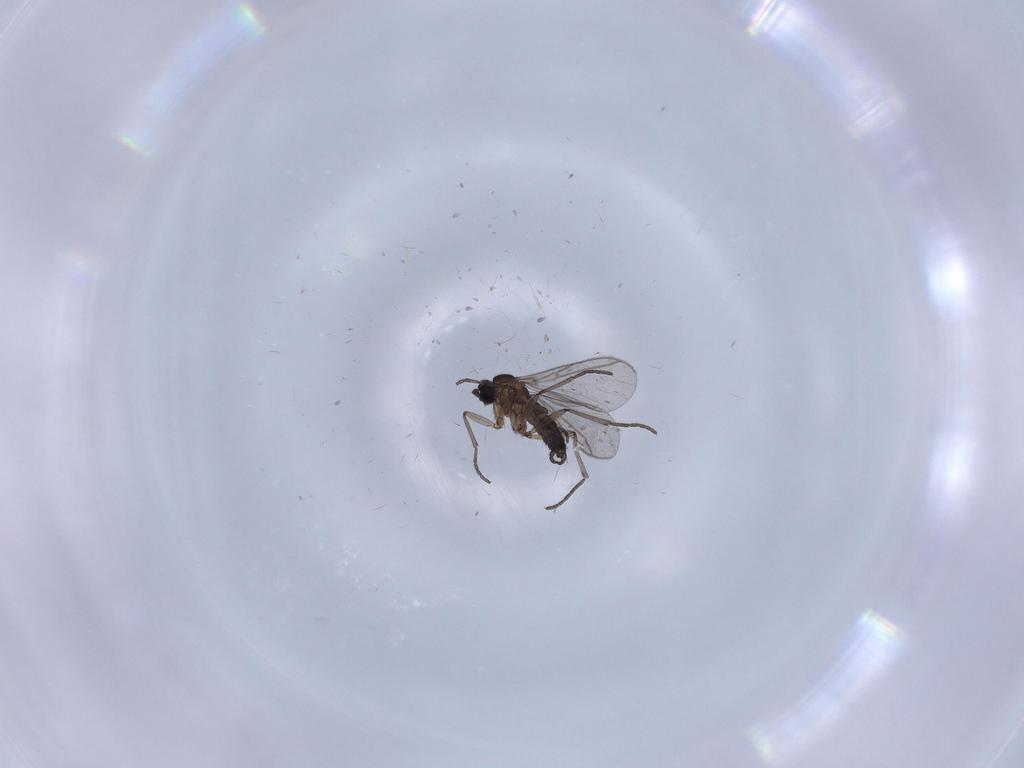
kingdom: Animalia
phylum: Arthropoda
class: Insecta
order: Diptera
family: Cecidomyiidae
